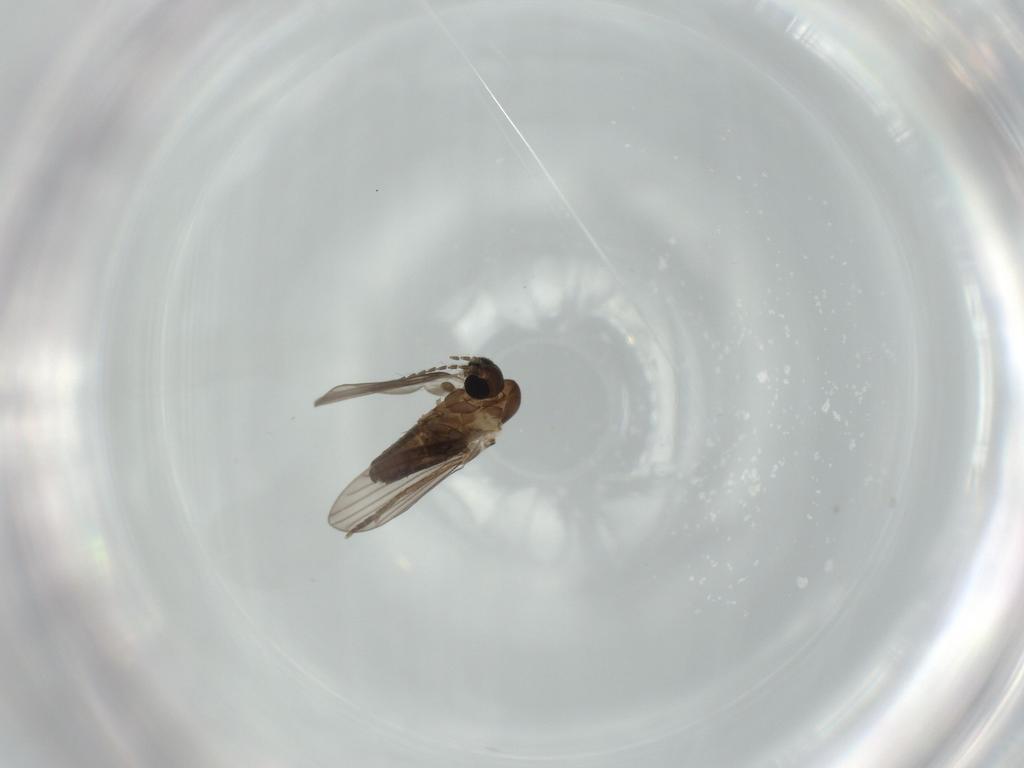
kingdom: Animalia
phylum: Arthropoda
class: Insecta
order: Diptera
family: Psychodidae
